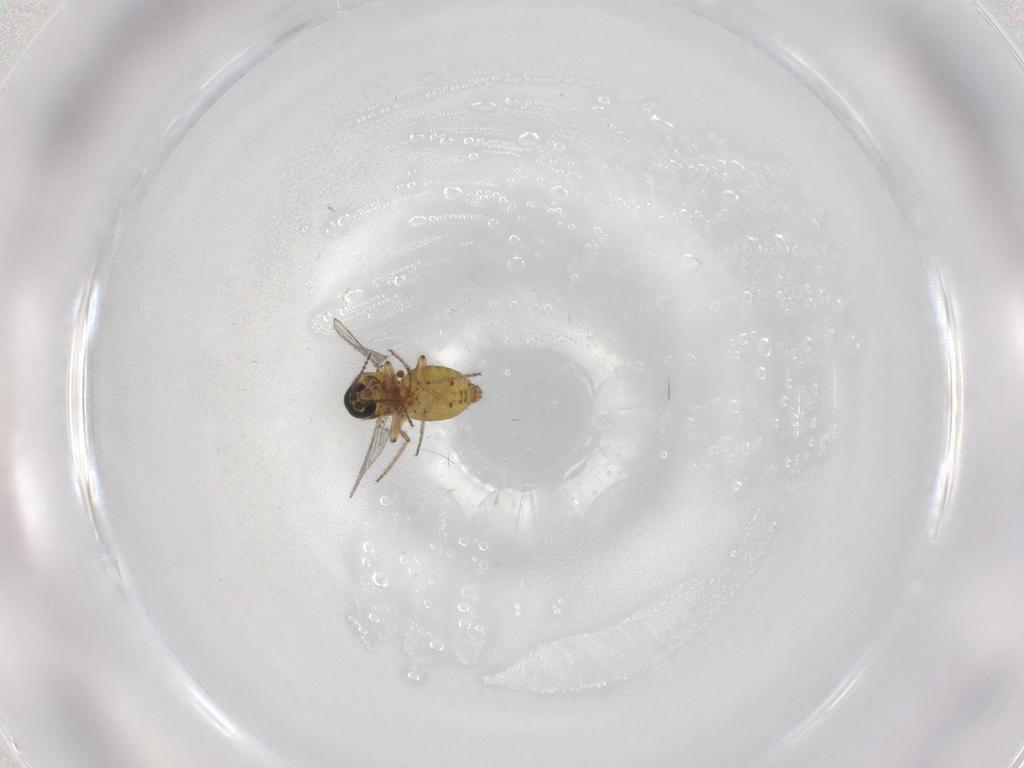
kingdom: Animalia
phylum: Arthropoda
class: Insecta
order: Diptera
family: Ceratopogonidae
